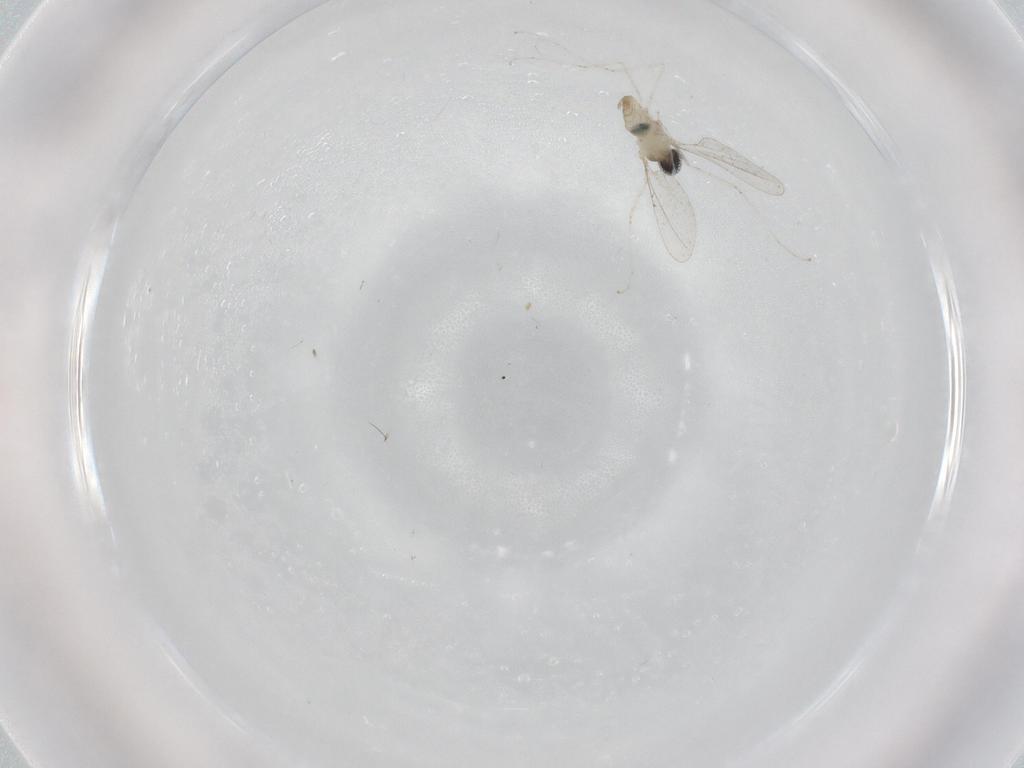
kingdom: Animalia
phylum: Arthropoda
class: Insecta
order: Diptera
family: Cecidomyiidae
